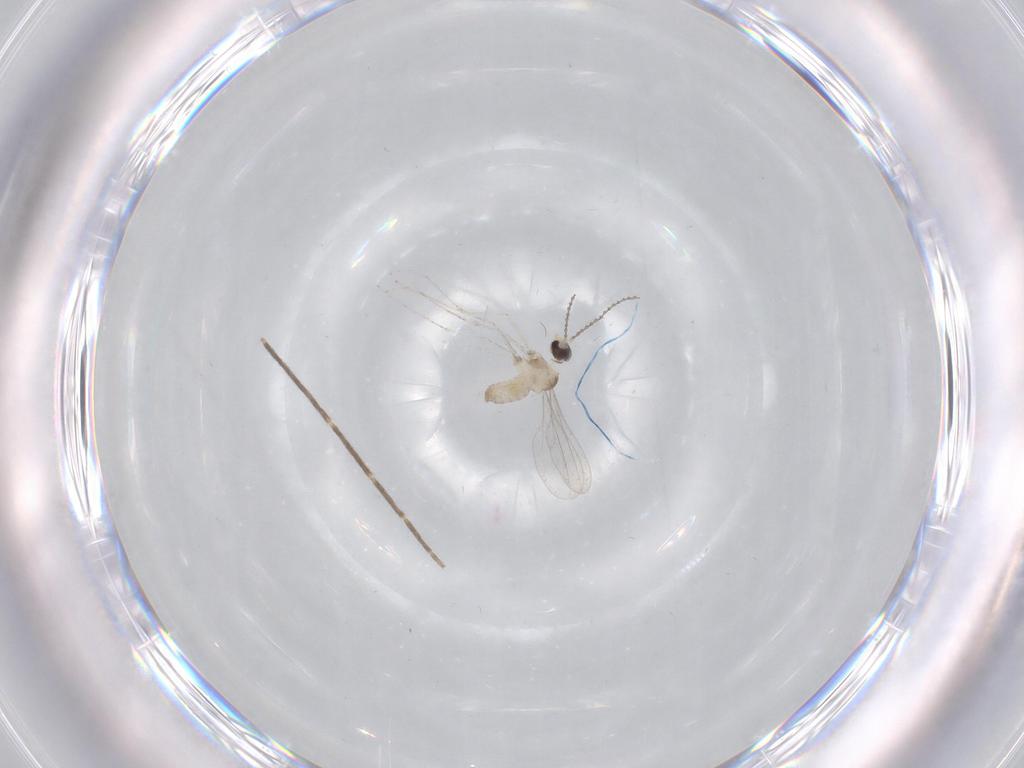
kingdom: Animalia
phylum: Arthropoda
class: Insecta
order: Diptera
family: Cecidomyiidae
